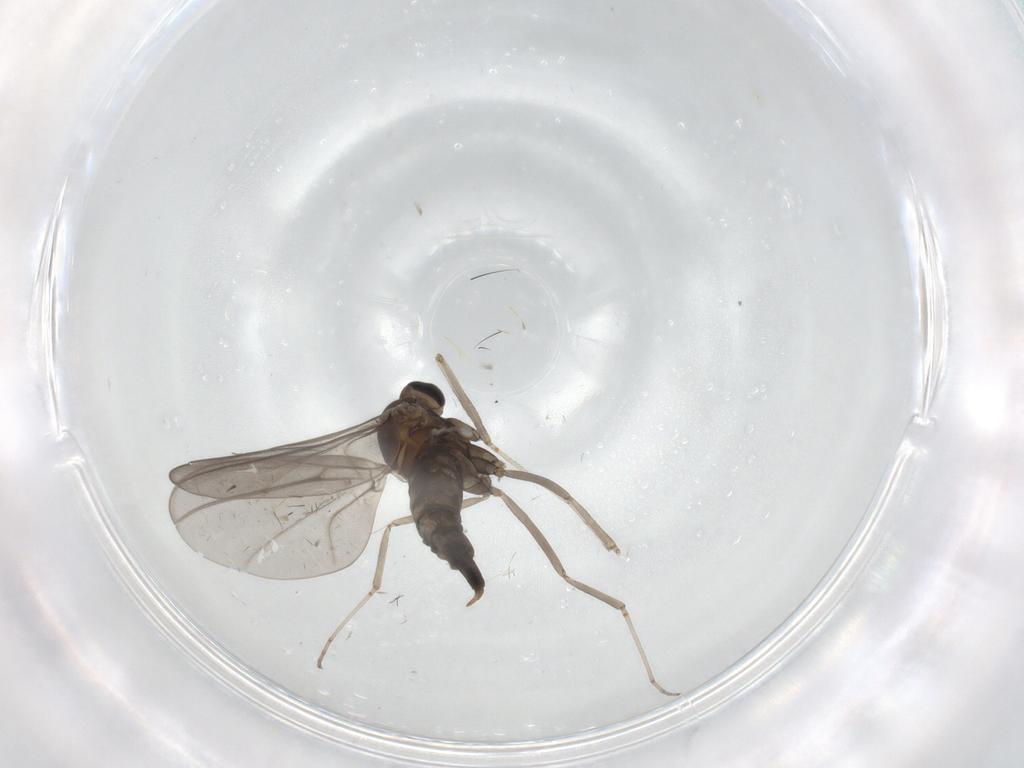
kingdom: Animalia
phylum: Arthropoda
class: Insecta
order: Diptera
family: Cecidomyiidae
